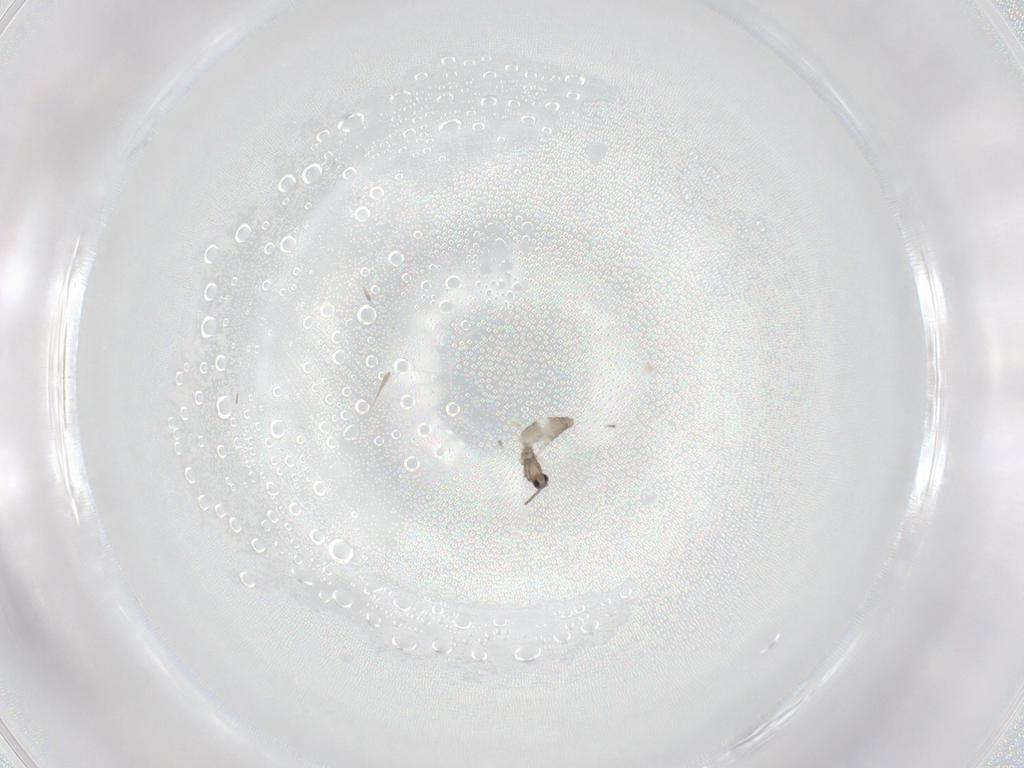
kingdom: Animalia
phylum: Arthropoda
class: Insecta
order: Diptera
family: Cecidomyiidae
